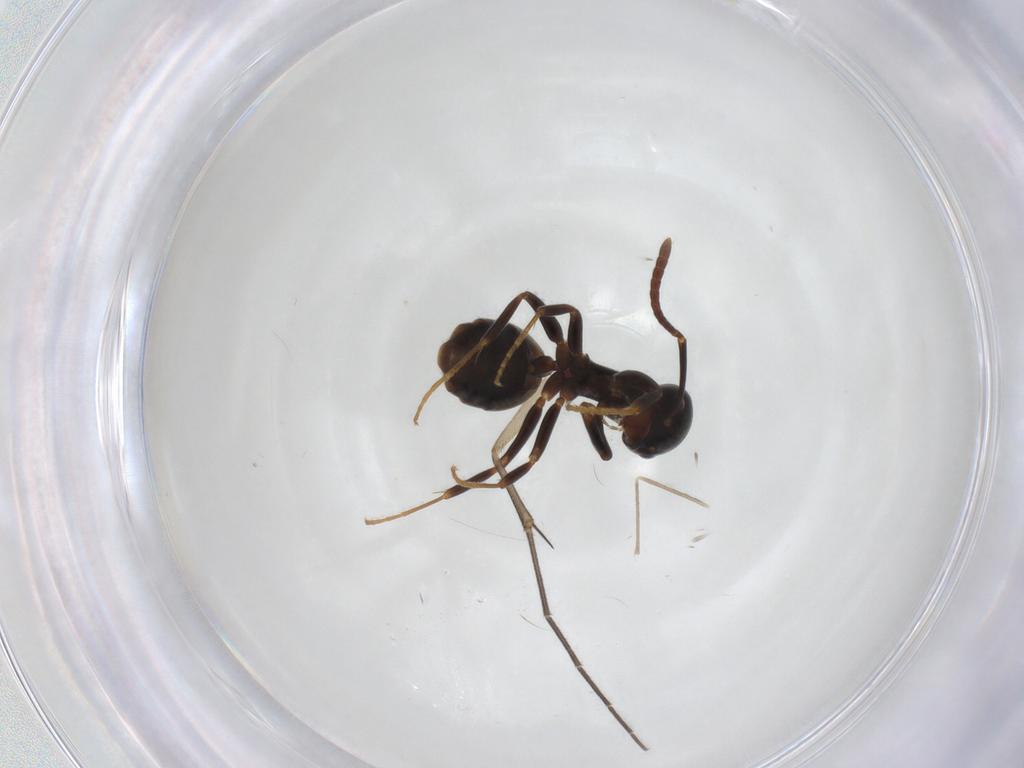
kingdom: Animalia
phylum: Arthropoda
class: Insecta
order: Hymenoptera
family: Formicidae
